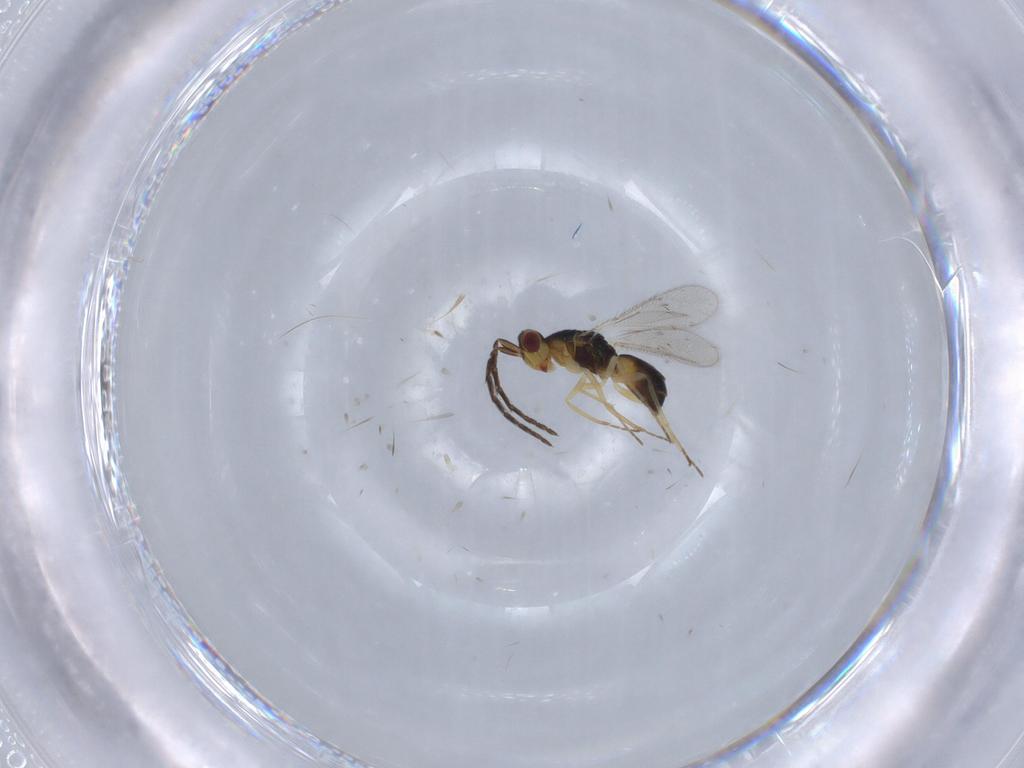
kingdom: Animalia
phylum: Arthropoda
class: Insecta
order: Hymenoptera
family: Eulophidae
